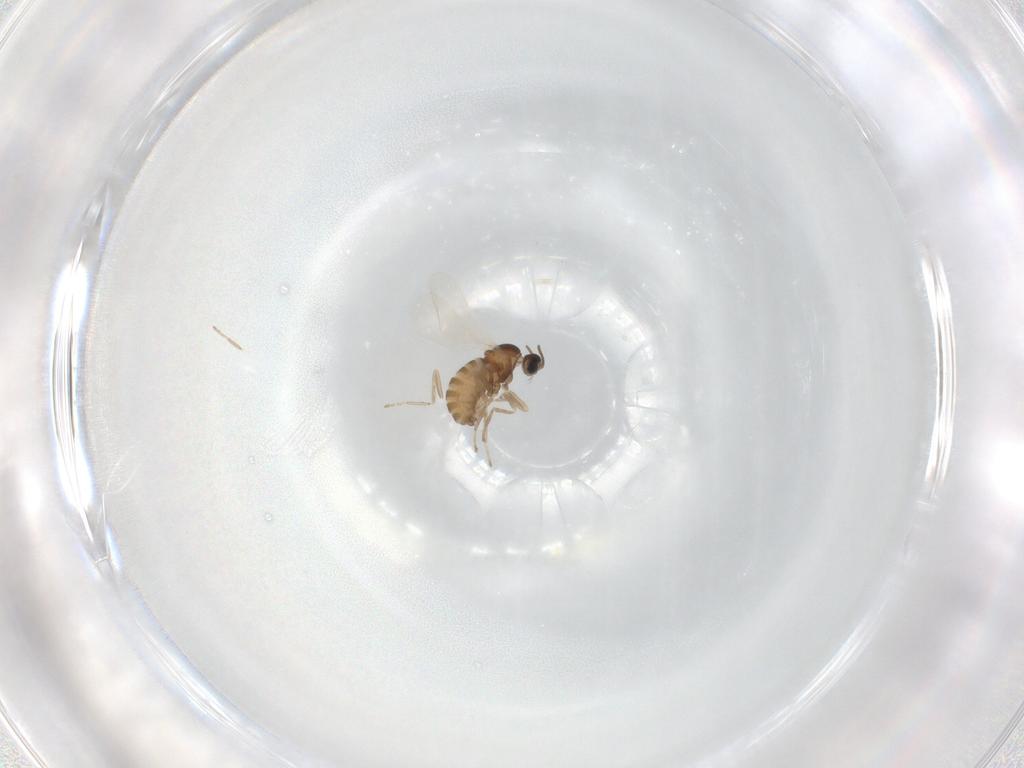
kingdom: Animalia
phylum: Arthropoda
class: Insecta
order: Diptera
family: Cecidomyiidae
